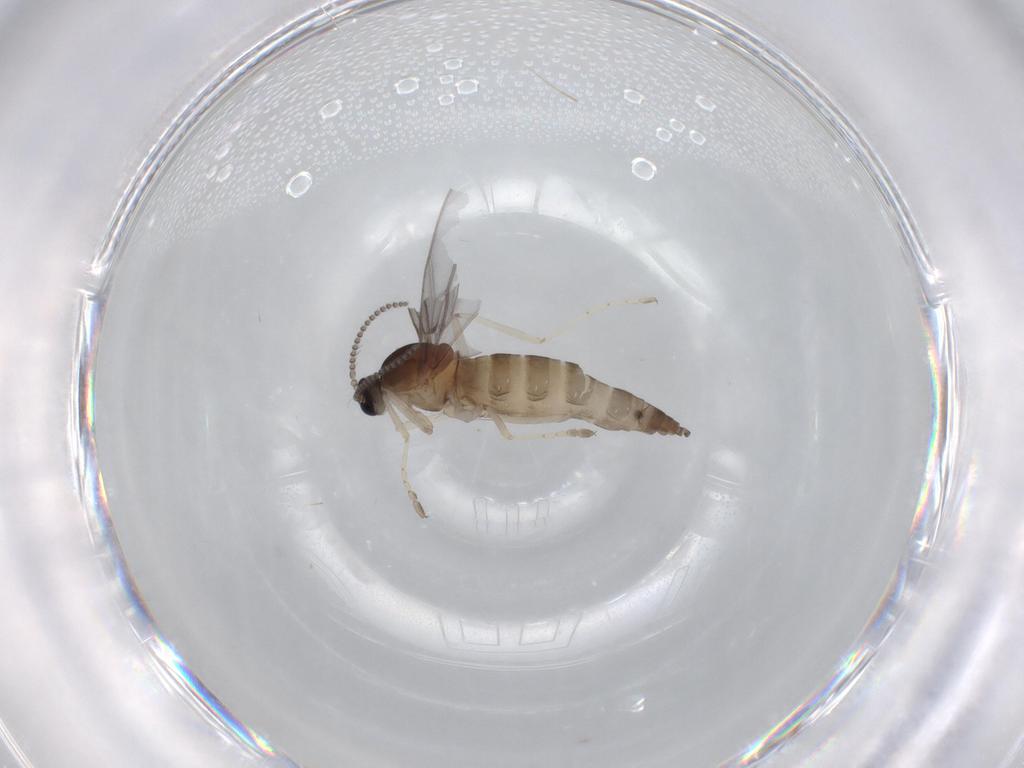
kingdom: Animalia
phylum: Arthropoda
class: Insecta
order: Diptera
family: Cecidomyiidae
